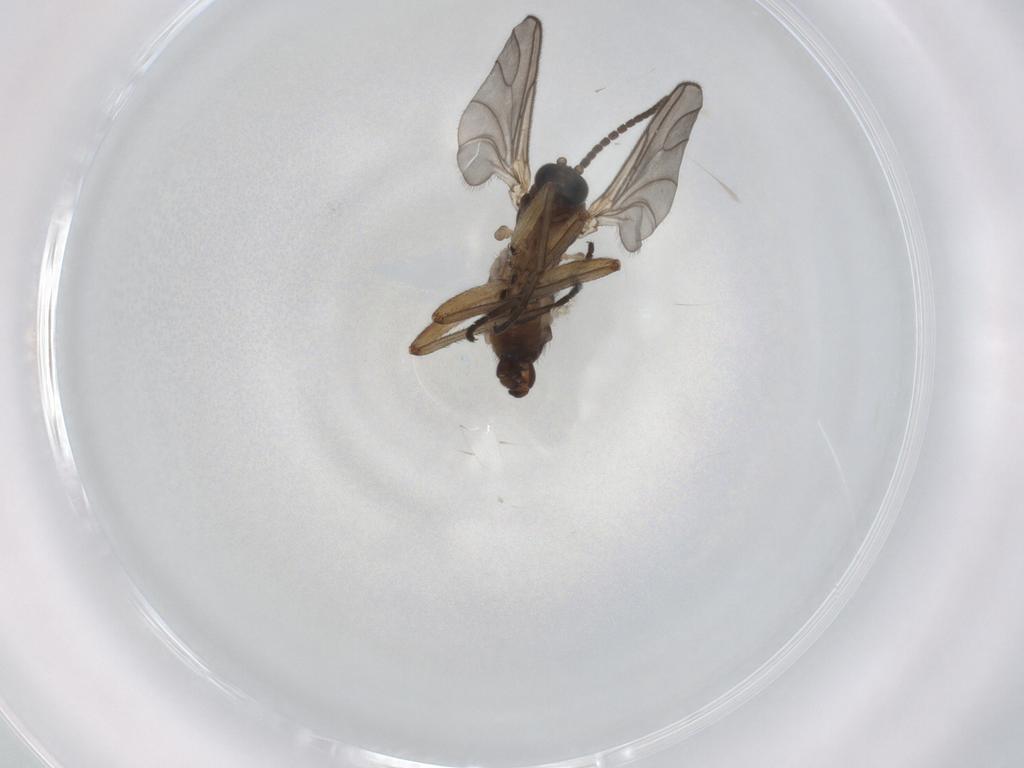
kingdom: Animalia
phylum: Arthropoda
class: Insecta
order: Diptera
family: Sciaridae
